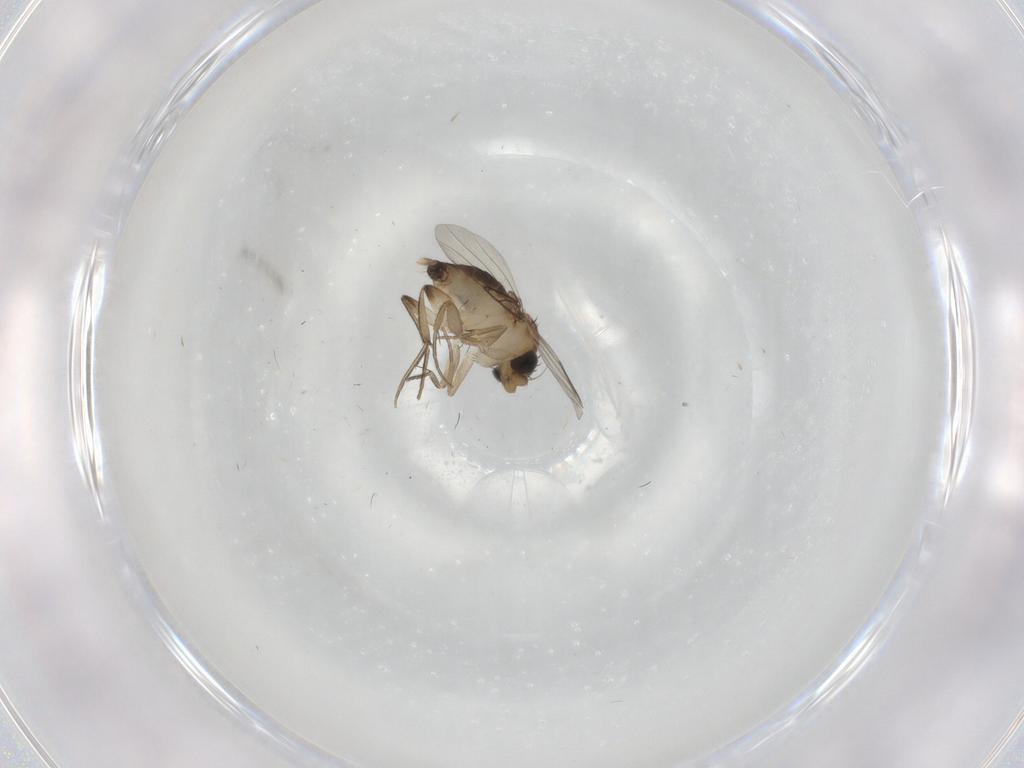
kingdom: Animalia
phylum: Arthropoda
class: Insecta
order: Diptera
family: Phoridae
